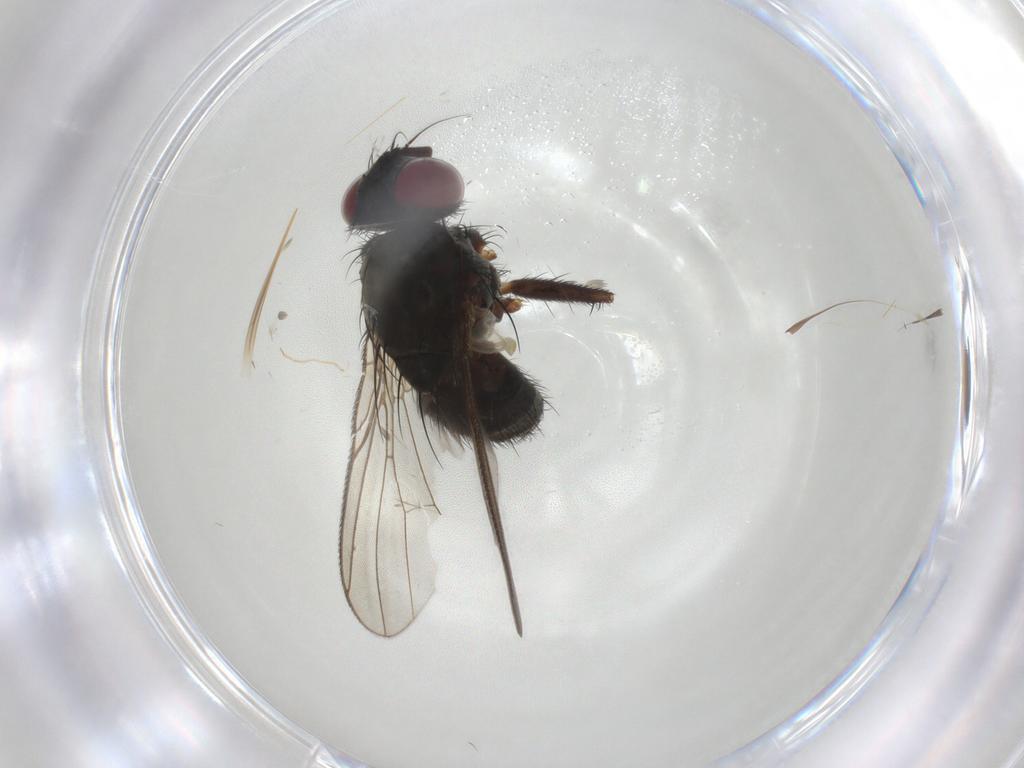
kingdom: Animalia
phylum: Arthropoda
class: Insecta
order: Diptera
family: Muscidae
